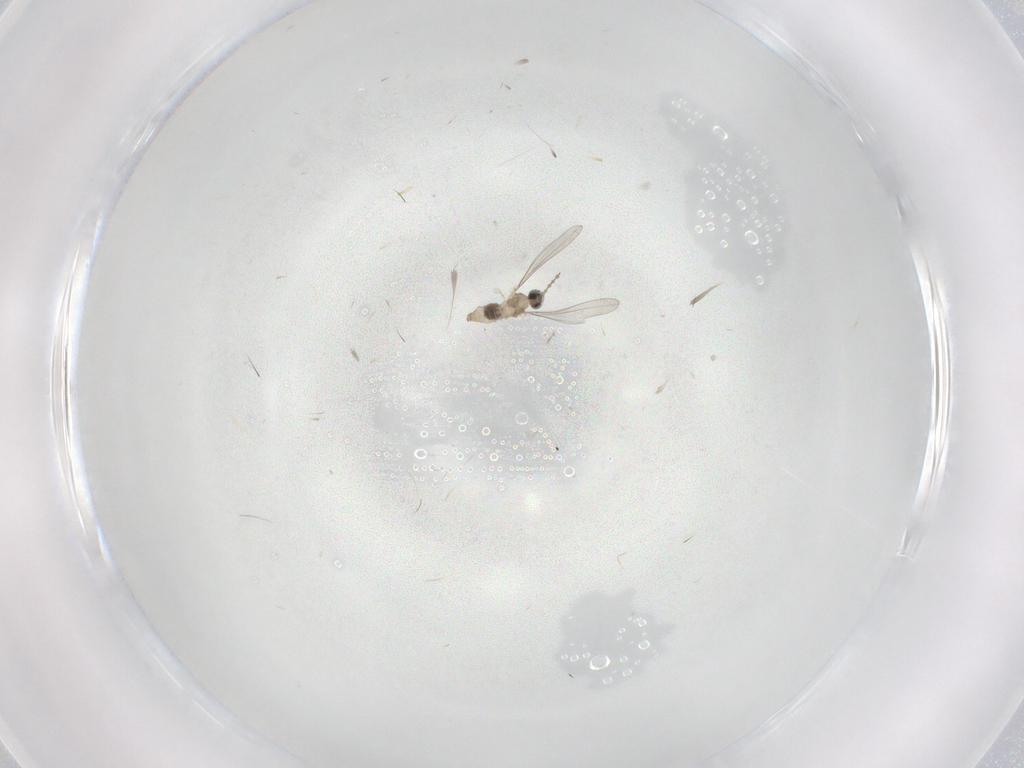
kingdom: Animalia
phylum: Arthropoda
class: Insecta
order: Diptera
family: Cecidomyiidae
